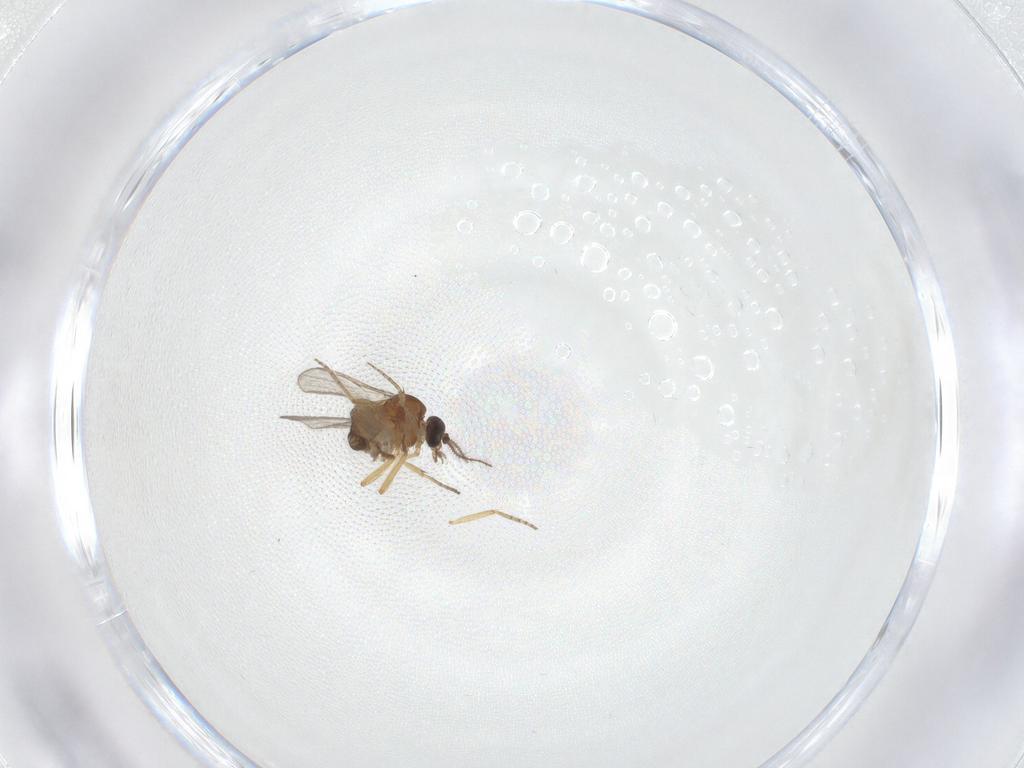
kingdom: Animalia
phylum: Arthropoda
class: Insecta
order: Diptera
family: Ceratopogonidae
